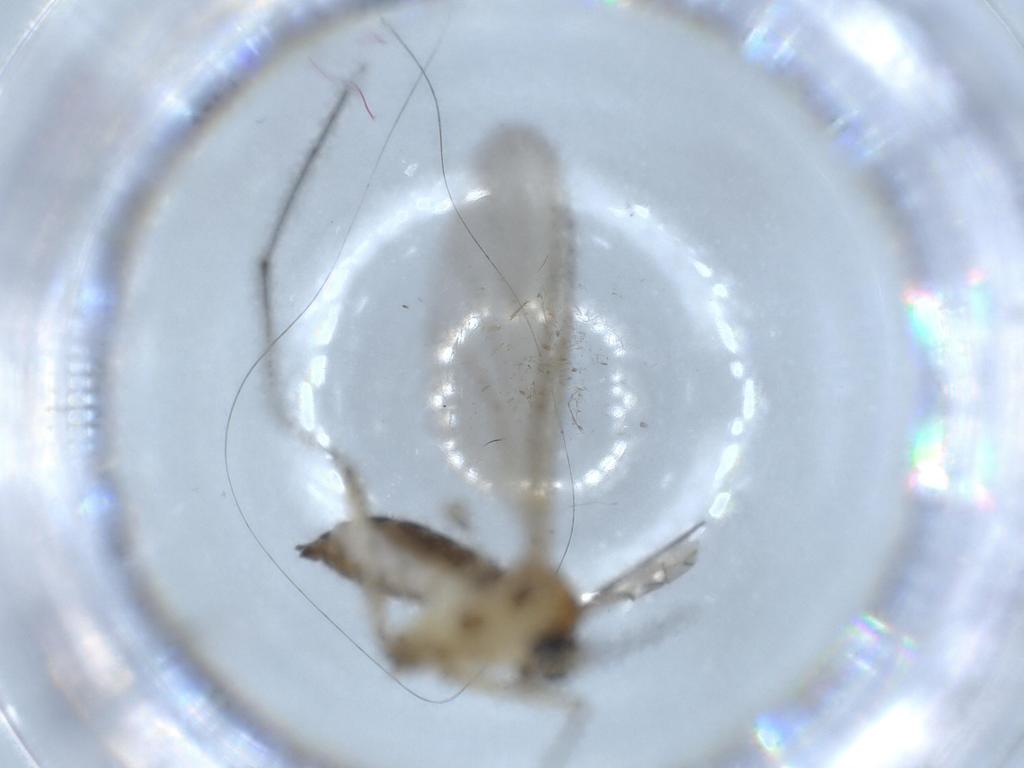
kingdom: Animalia
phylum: Arthropoda
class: Insecta
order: Diptera
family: Sciaridae
